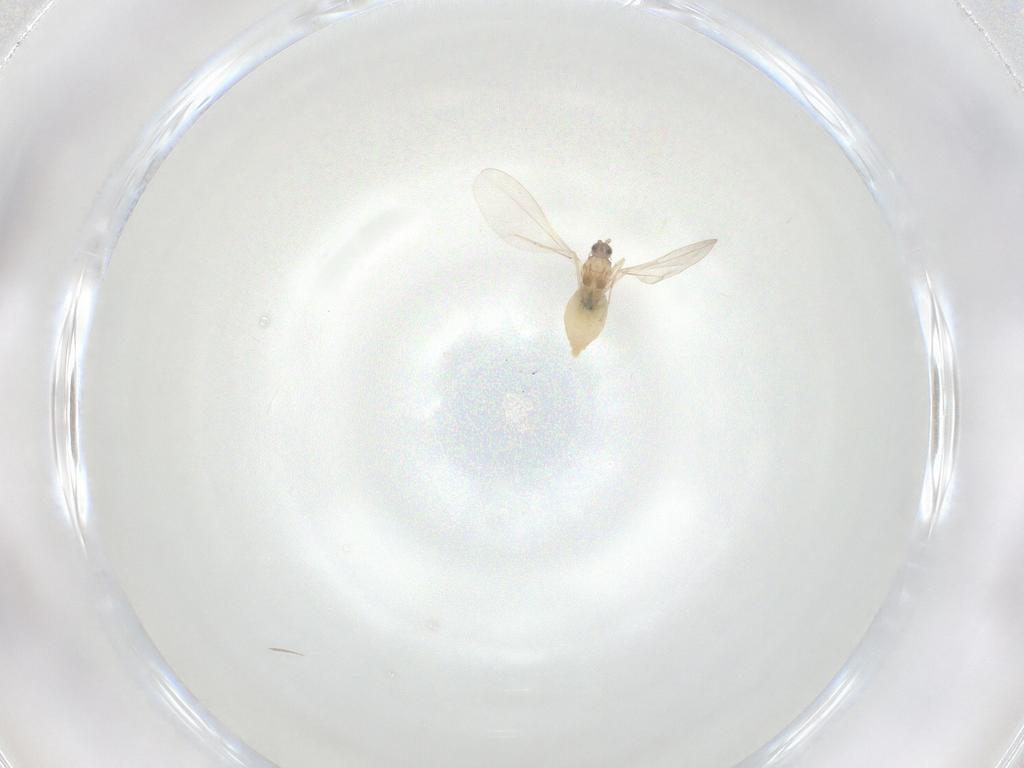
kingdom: Animalia
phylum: Arthropoda
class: Insecta
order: Diptera
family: Cecidomyiidae
